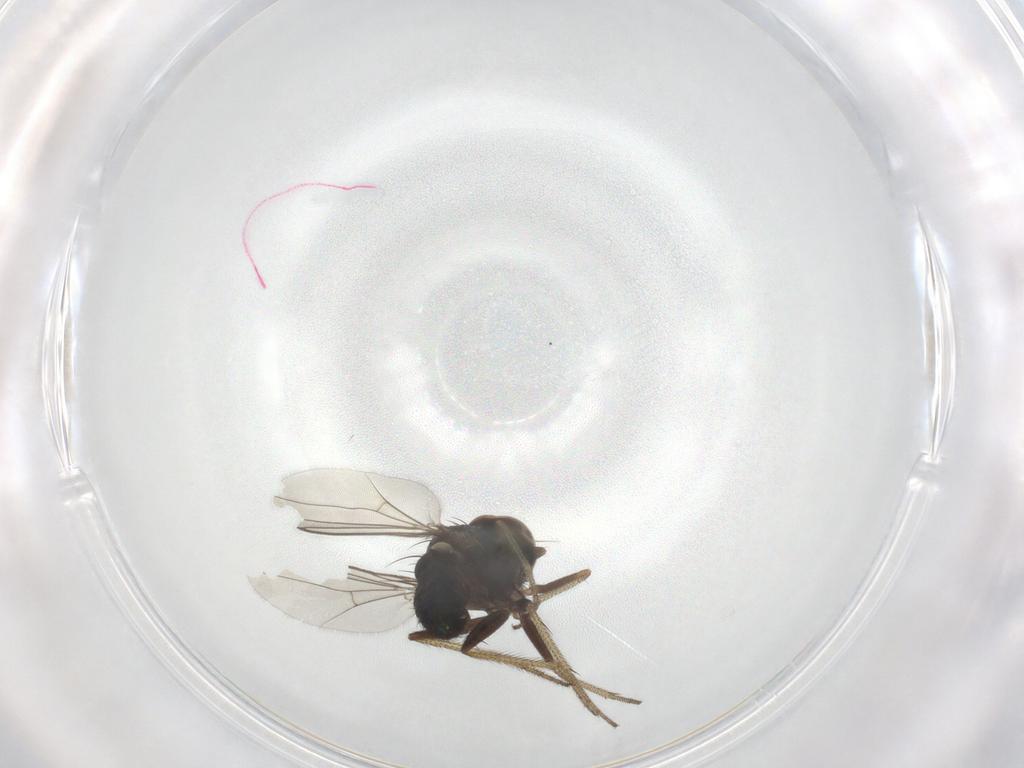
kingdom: Animalia
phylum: Arthropoda
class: Insecta
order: Diptera
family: Dolichopodidae
